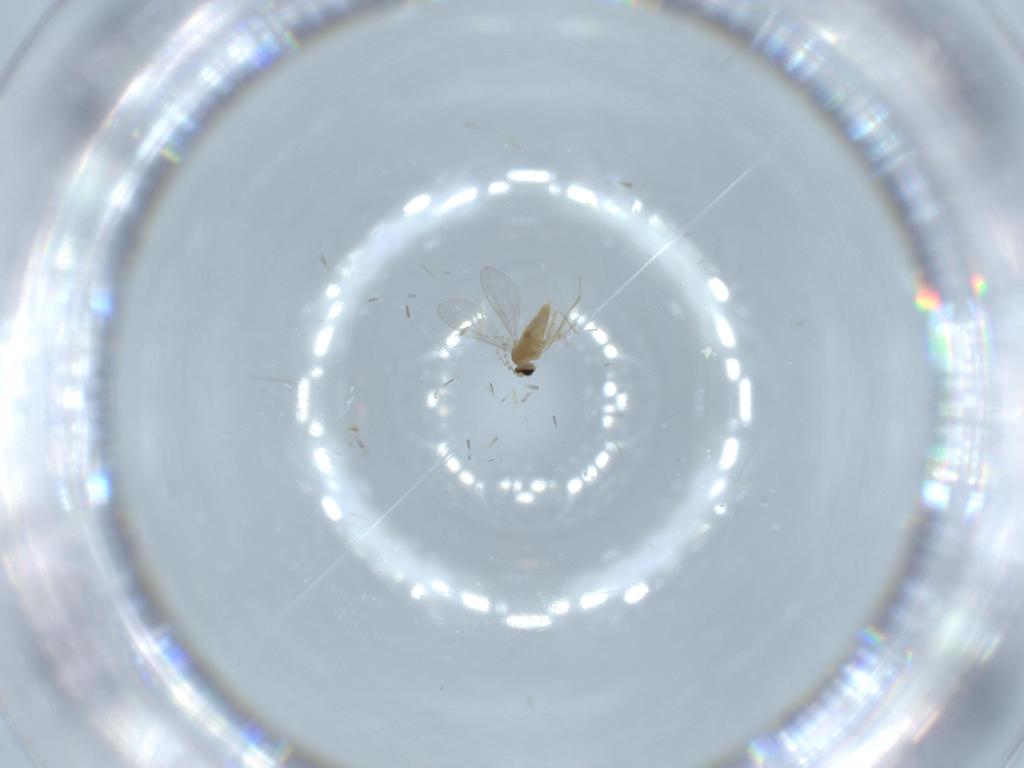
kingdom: Animalia
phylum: Arthropoda
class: Insecta
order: Diptera
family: Cecidomyiidae
